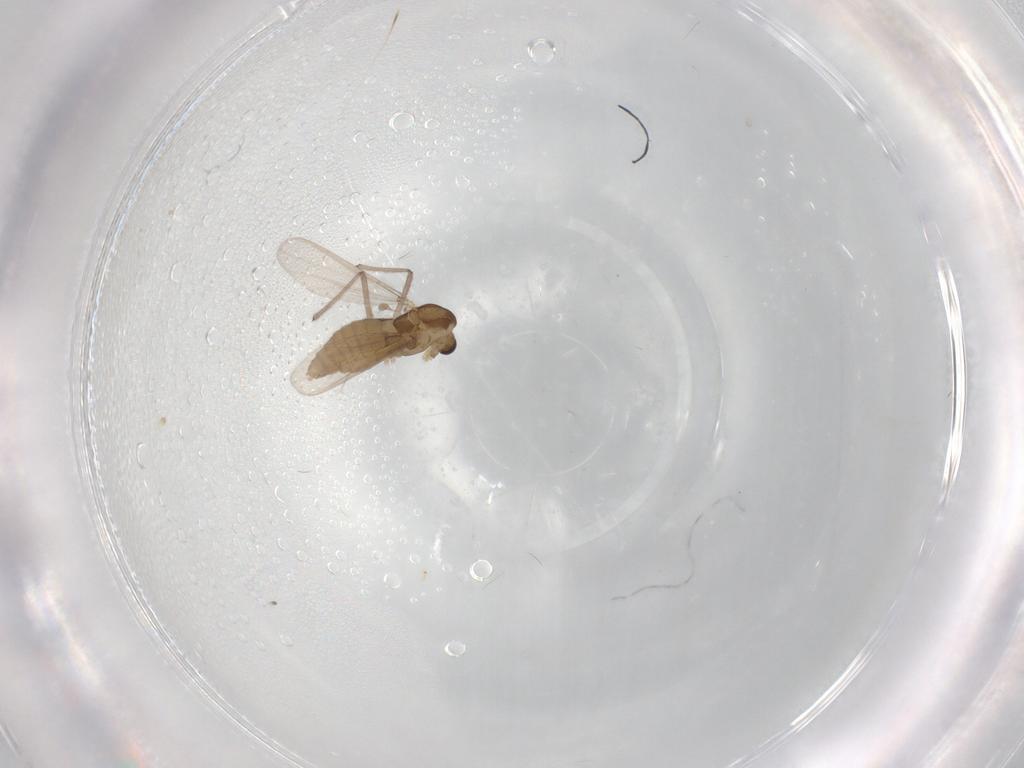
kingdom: Animalia
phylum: Arthropoda
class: Insecta
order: Diptera
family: Chironomidae
